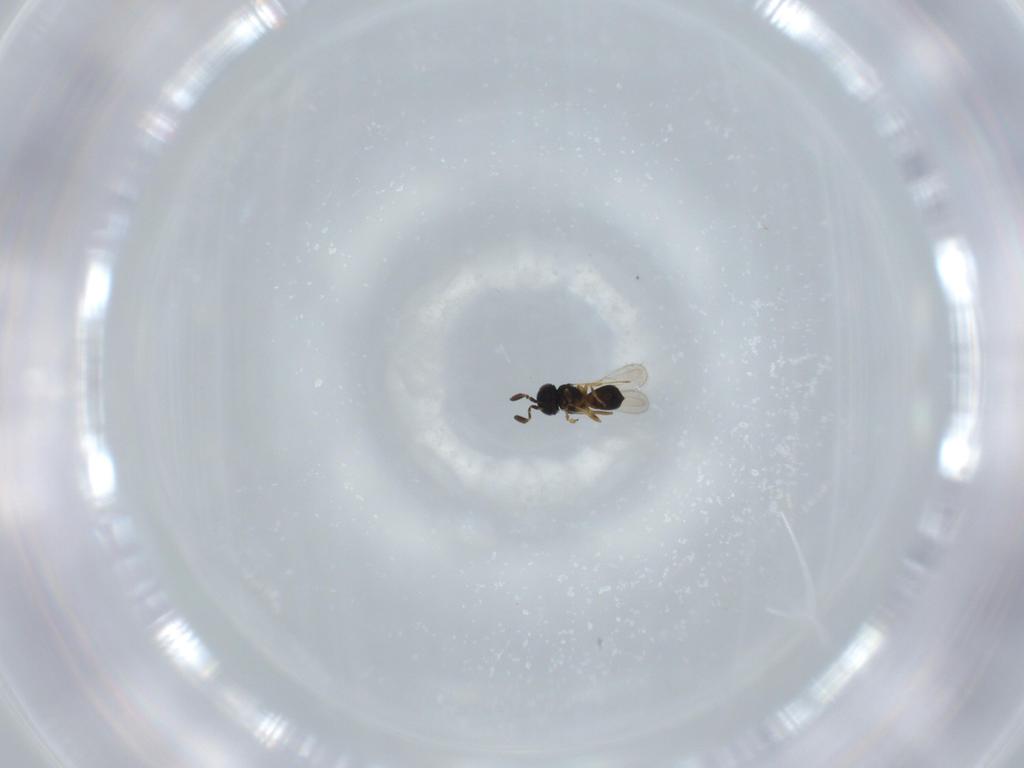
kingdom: Animalia
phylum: Arthropoda
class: Insecta
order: Hymenoptera
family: Scelionidae
